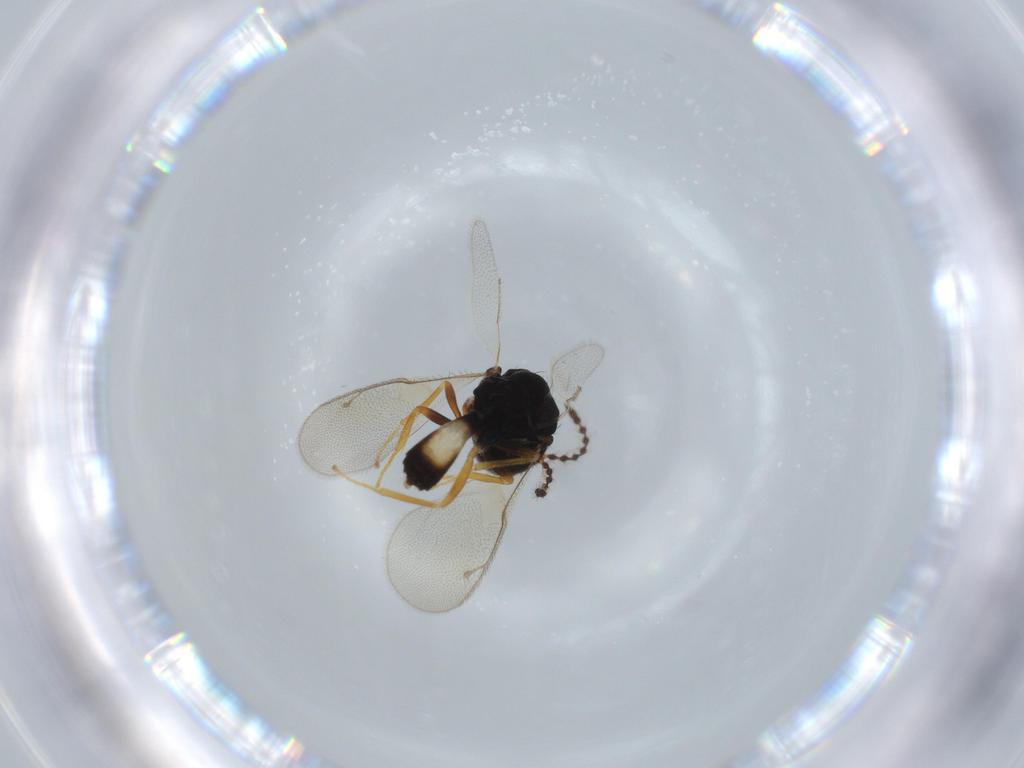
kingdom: Animalia
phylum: Arthropoda
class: Insecta
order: Hymenoptera
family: Pteromalidae
